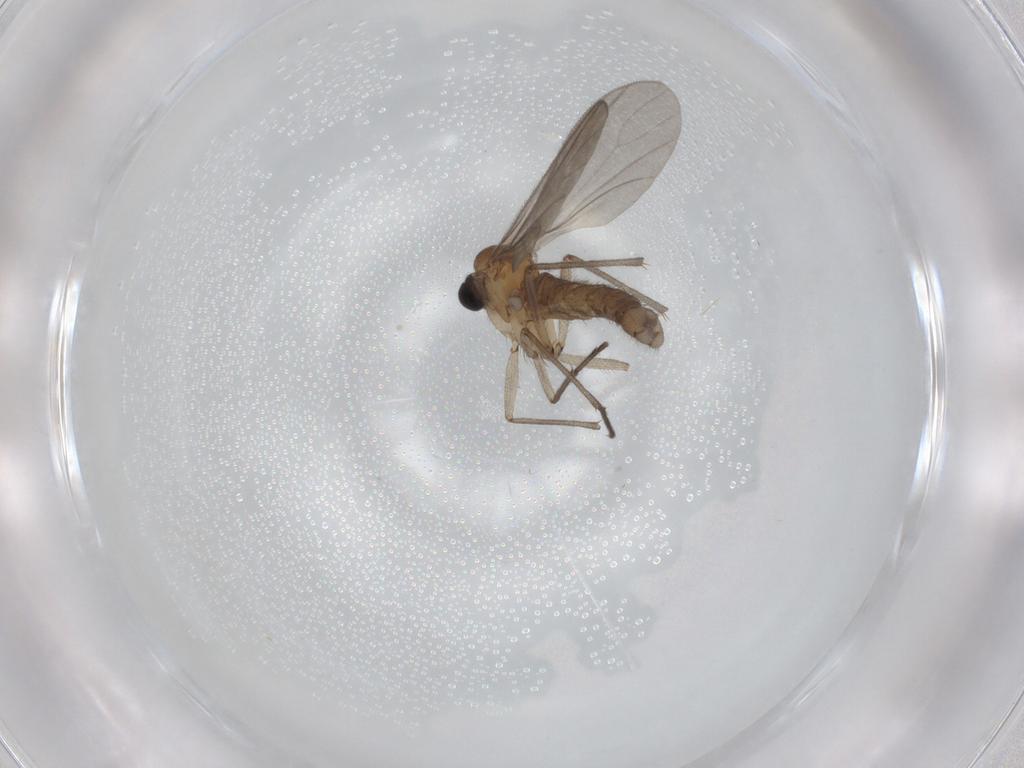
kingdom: Animalia
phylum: Arthropoda
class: Insecta
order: Diptera
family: Sciaridae
